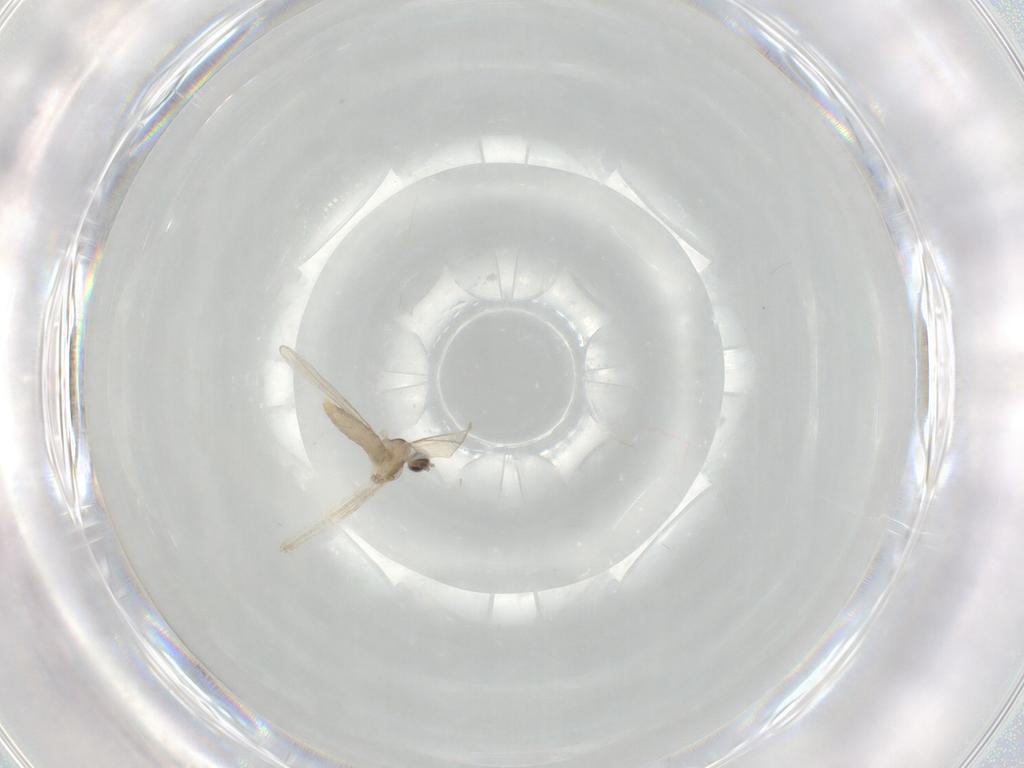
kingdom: Animalia
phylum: Arthropoda
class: Insecta
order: Diptera
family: Cecidomyiidae
